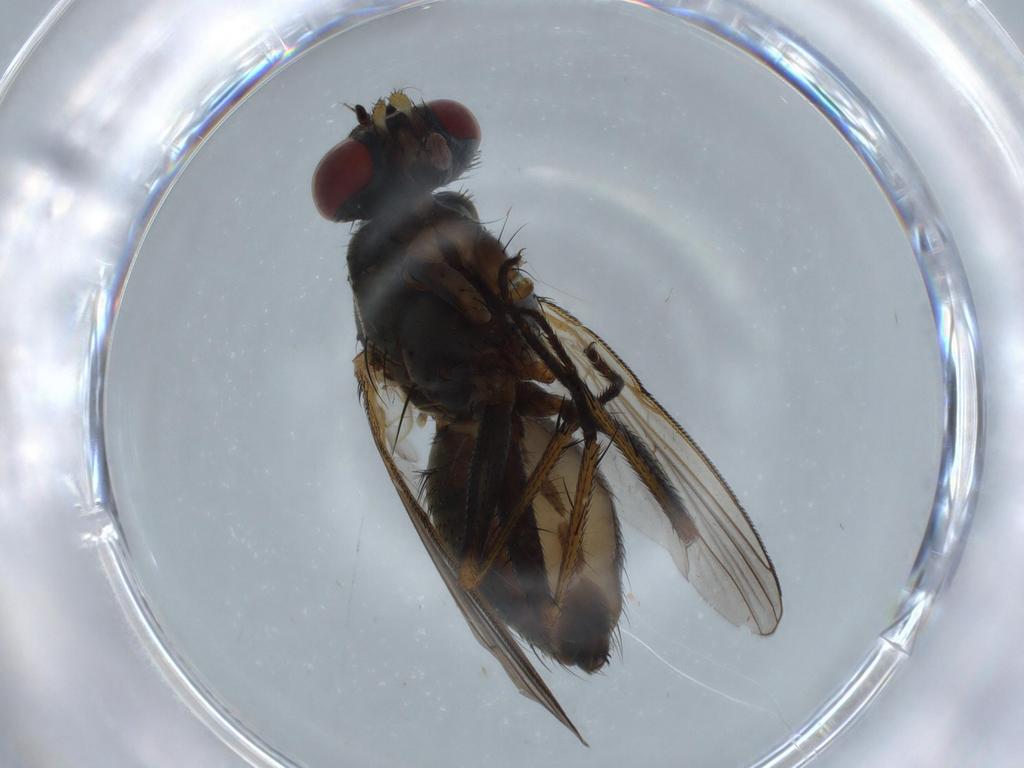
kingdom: Animalia
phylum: Arthropoda
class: Insecta
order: Diptera
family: Muscidae
